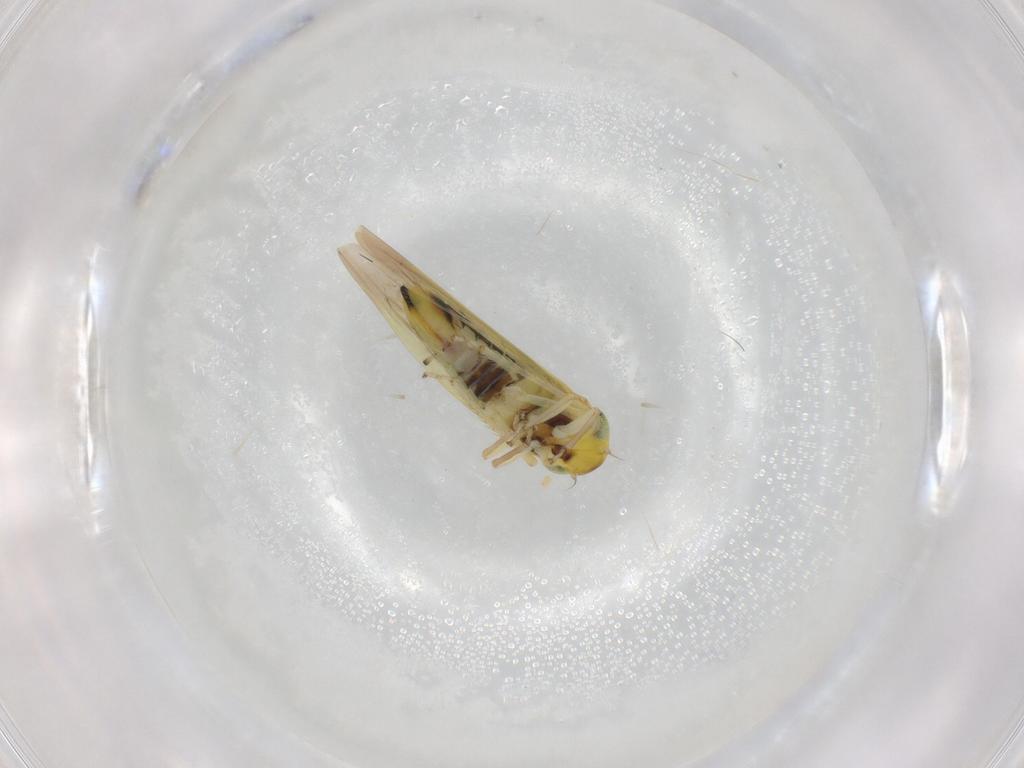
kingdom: Animalia
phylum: Arthropoda
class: Insecta
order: Hemiptera
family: Cicadellidae
